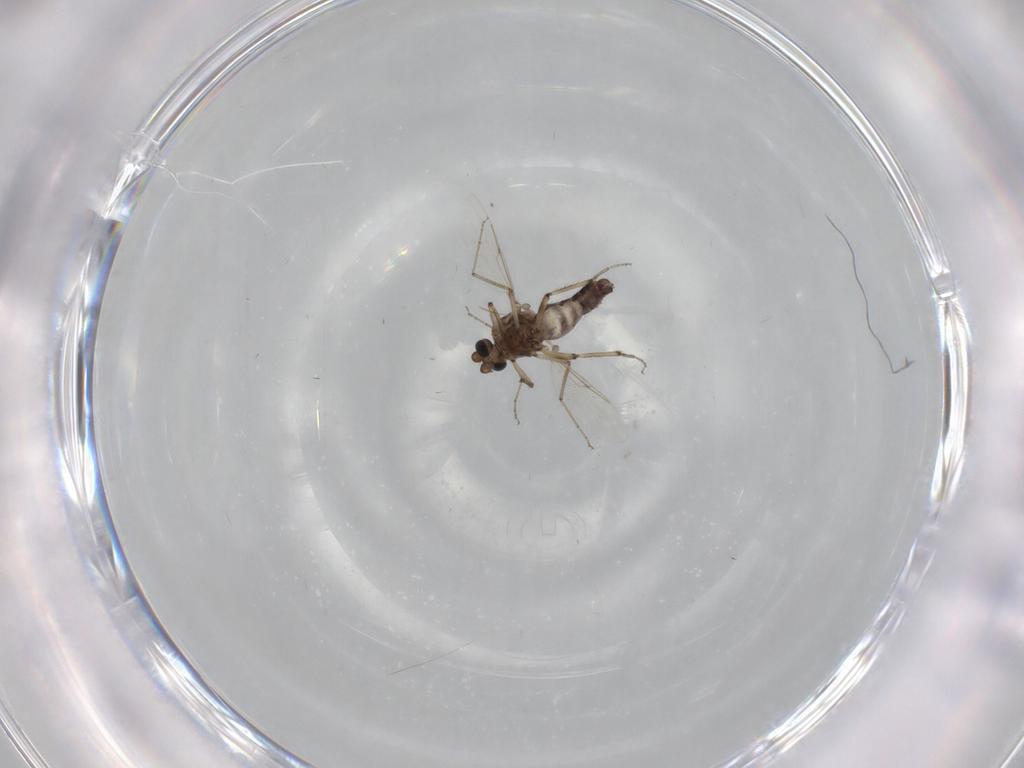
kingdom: Animalia
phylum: Arthropoda
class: Insecta
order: Diptera
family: Ceratopogonidae
